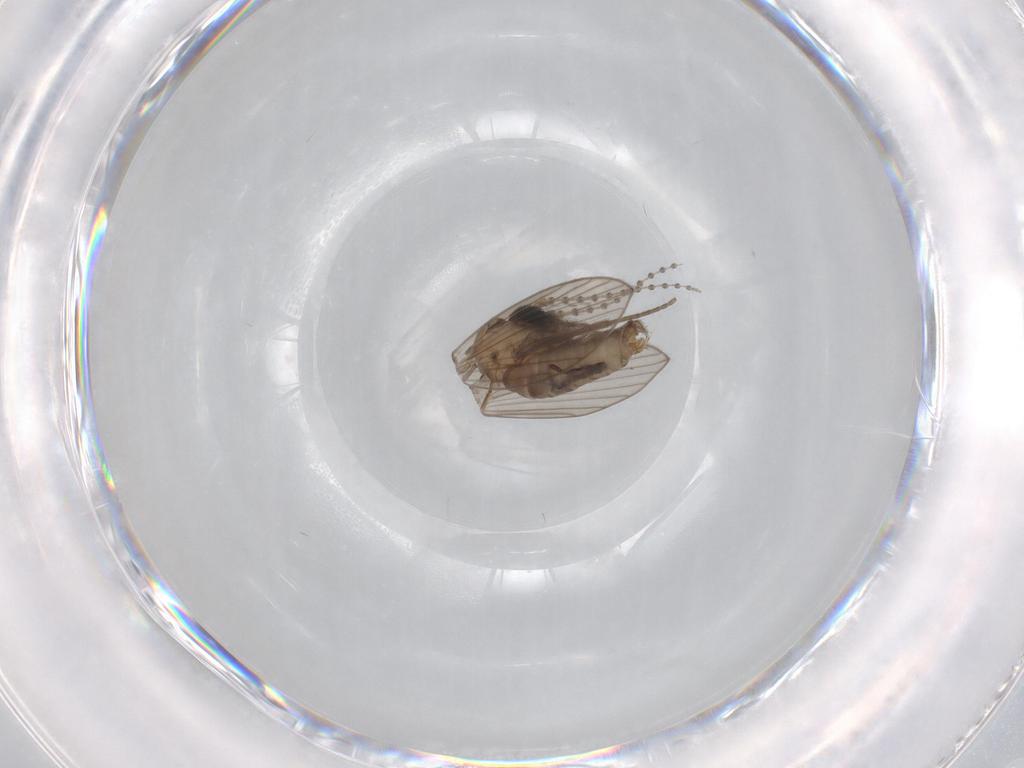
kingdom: Animalia
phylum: Arthropoda
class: Insecta
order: Diptera
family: Psychodidae
